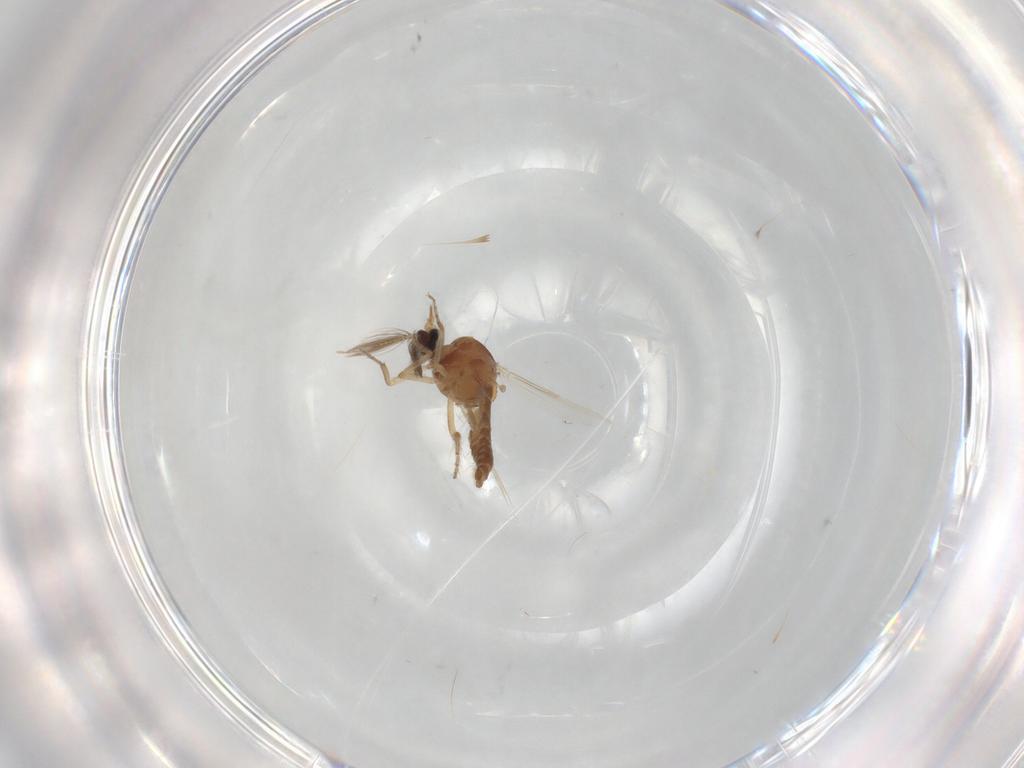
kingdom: Animalia
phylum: Arthropoda
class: Insecta
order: Diptera
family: Ceratopogonidae
